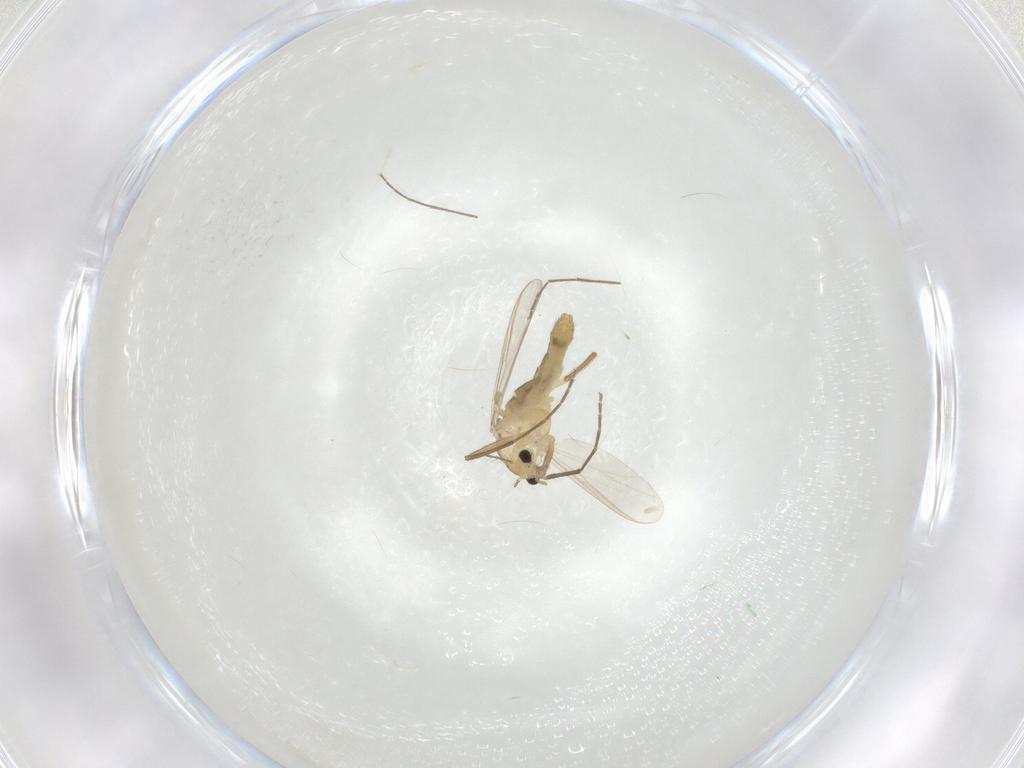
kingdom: Animalia
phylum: Arthropoda
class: Insecta
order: Diptera
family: Chironomidae
